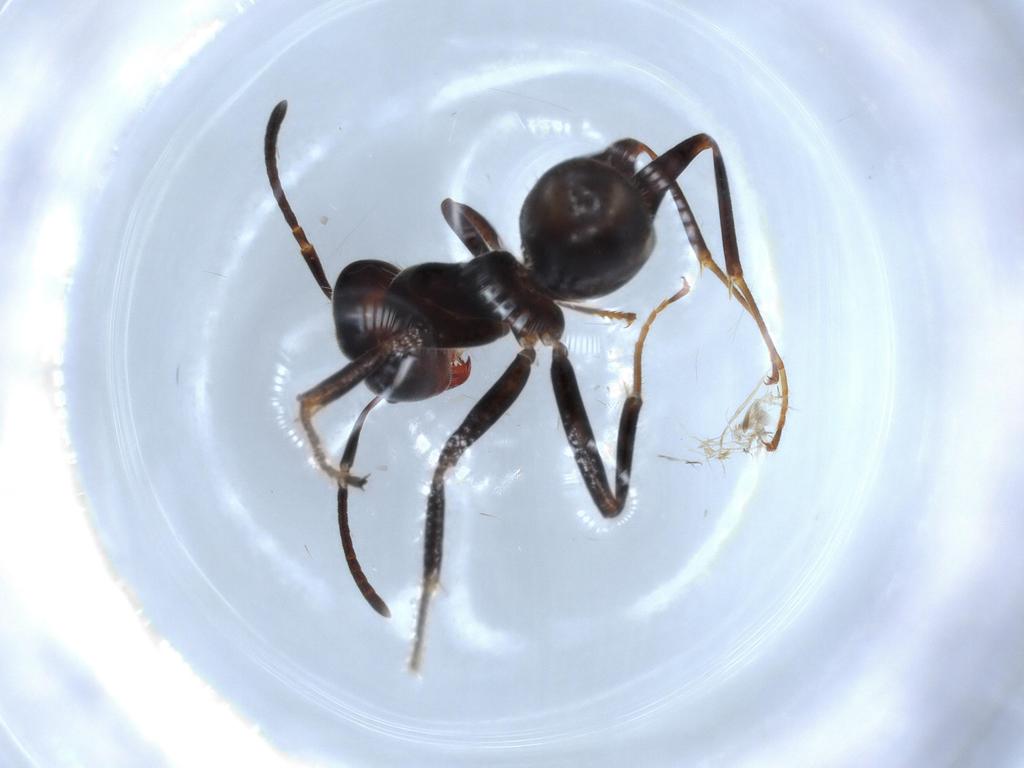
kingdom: Animalia
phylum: Arthropoda
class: Insecta
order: Hymenoptera
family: Formicidae
